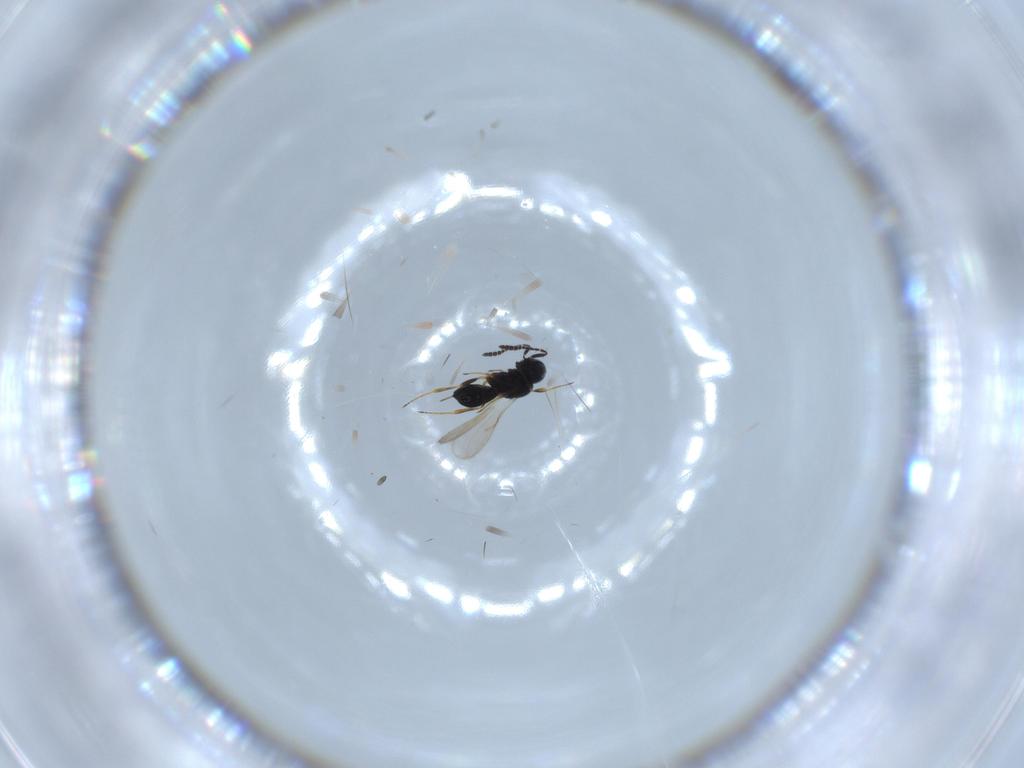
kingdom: Animalia
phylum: Arthropoda
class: Insecta
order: Hymenoptera
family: Scelionidae
